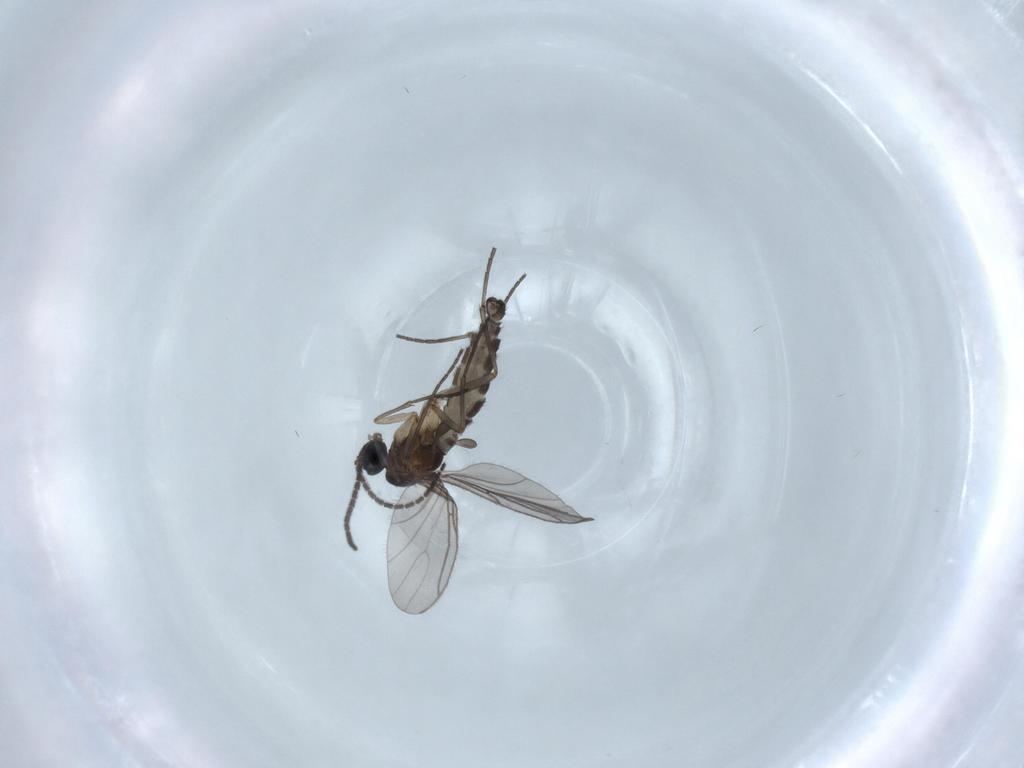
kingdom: Animalia
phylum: Arthropoda
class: Insecta
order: Diptera
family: Sciaridae
